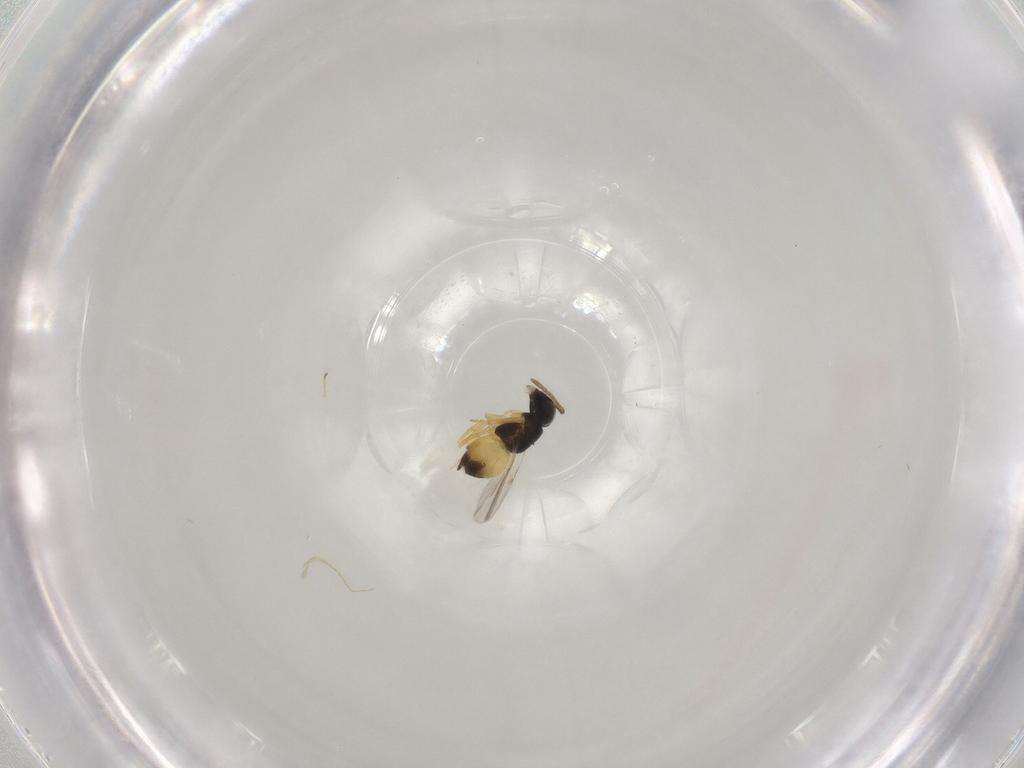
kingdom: Animalia
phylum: Arthropoda
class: Insecta
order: Hymenoptera
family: Encyrtidae
